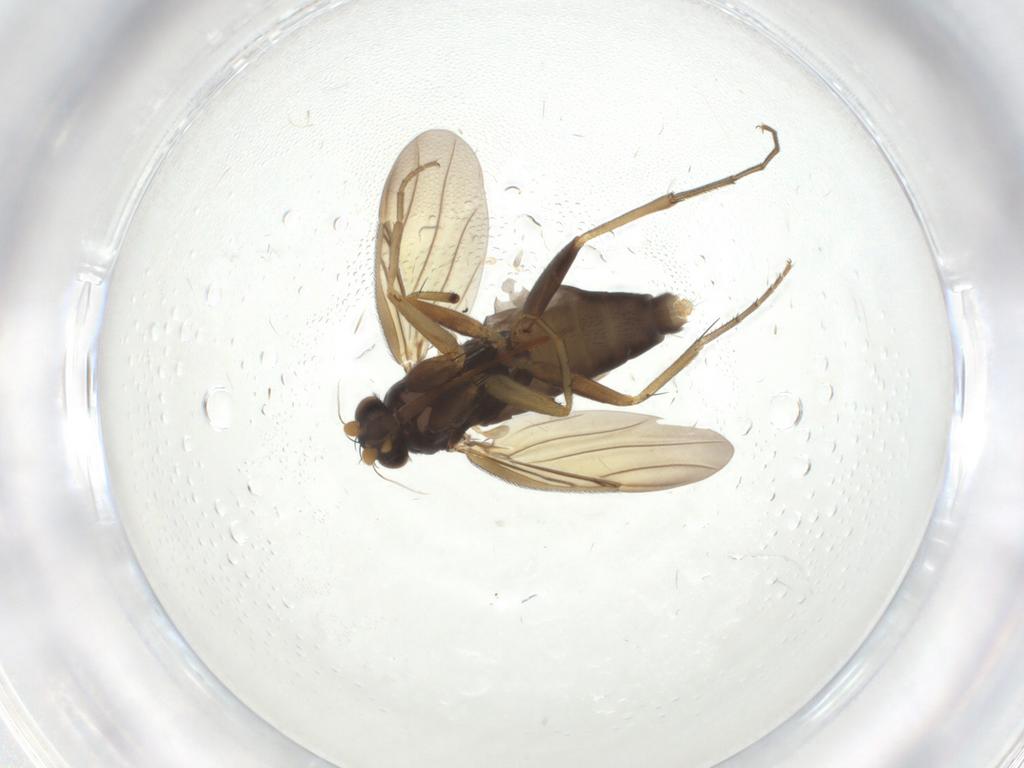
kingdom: Animalia
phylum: Arthropoda
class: Insecta
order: Diptera
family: Phoridae
